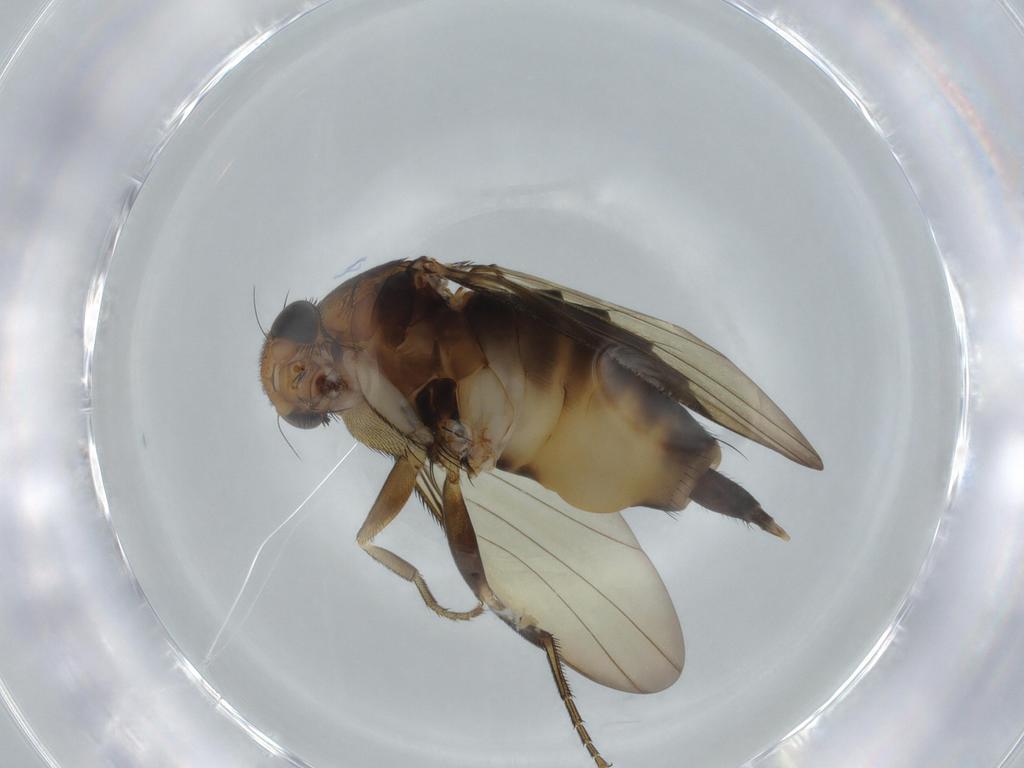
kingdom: Animalia
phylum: Arthropoda
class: Insecta
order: Diptera
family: Phoridae
